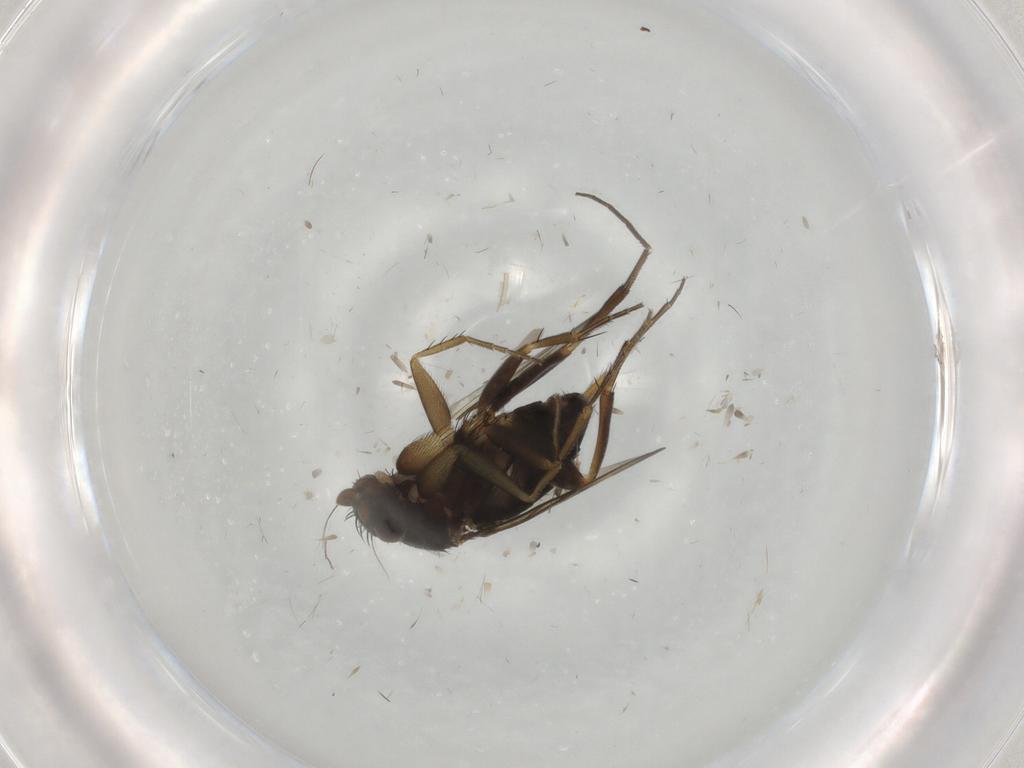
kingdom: Animalia
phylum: Arthropoda
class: Insecta
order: Diptera
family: Phoridae
